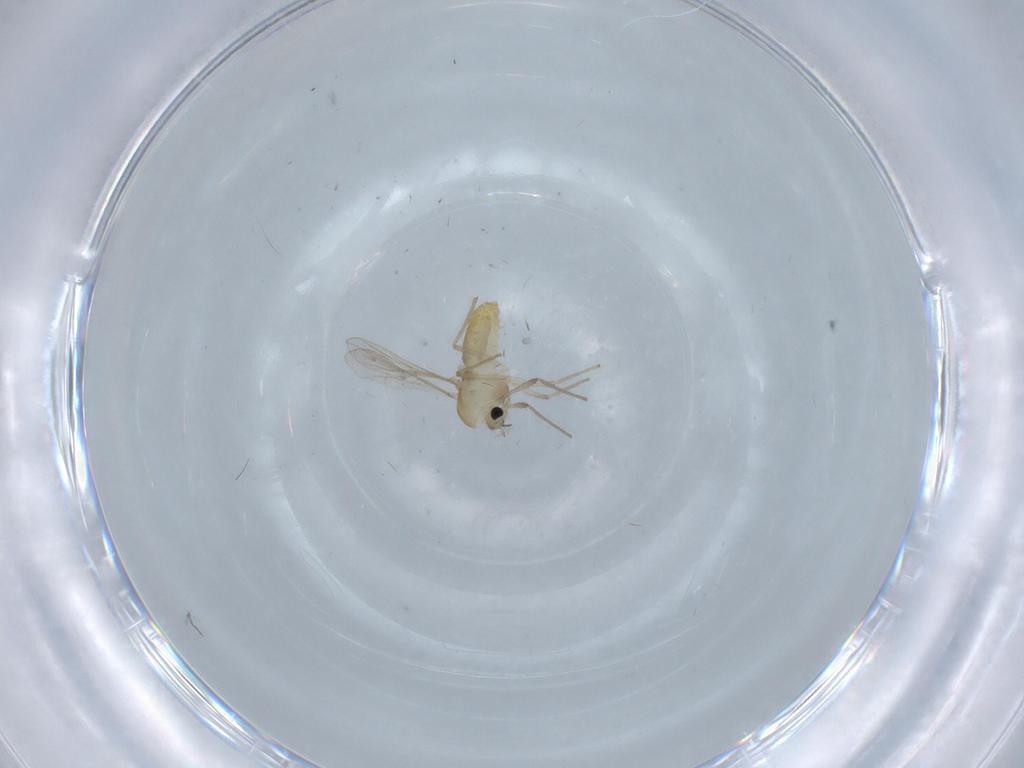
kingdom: Animalia
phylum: Arthropoda
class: Insecta
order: Diptera
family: Chironomidae
